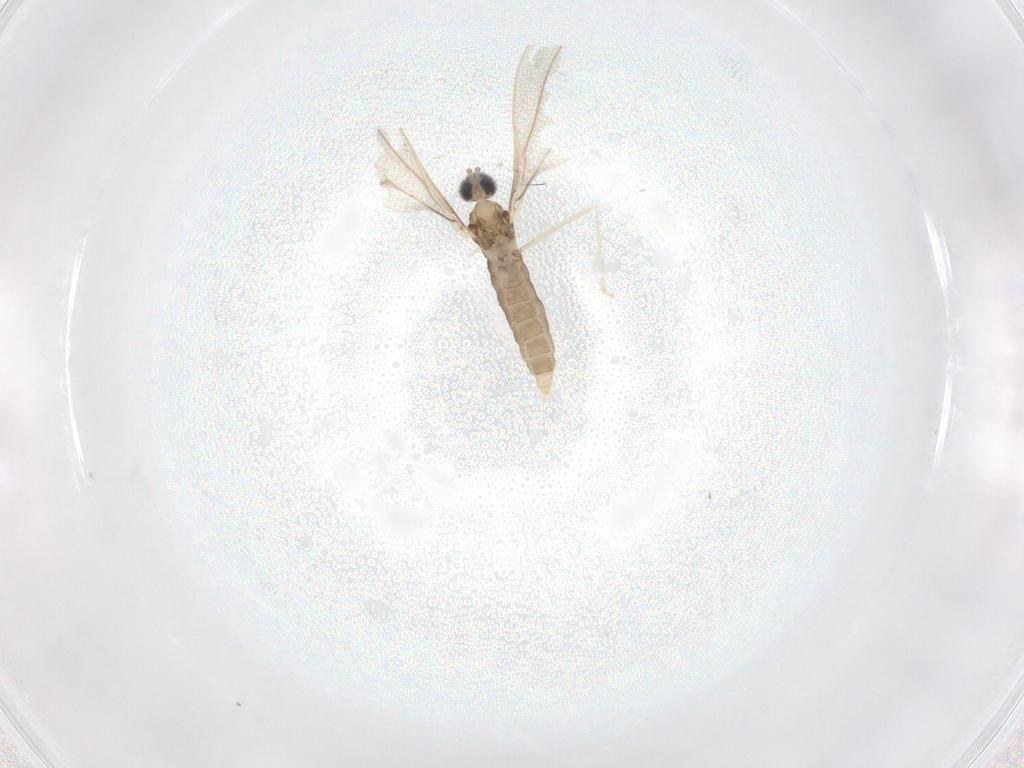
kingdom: Animalia
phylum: Arthropoda
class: Insecta
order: Diptera
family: Cecidomyiidae
